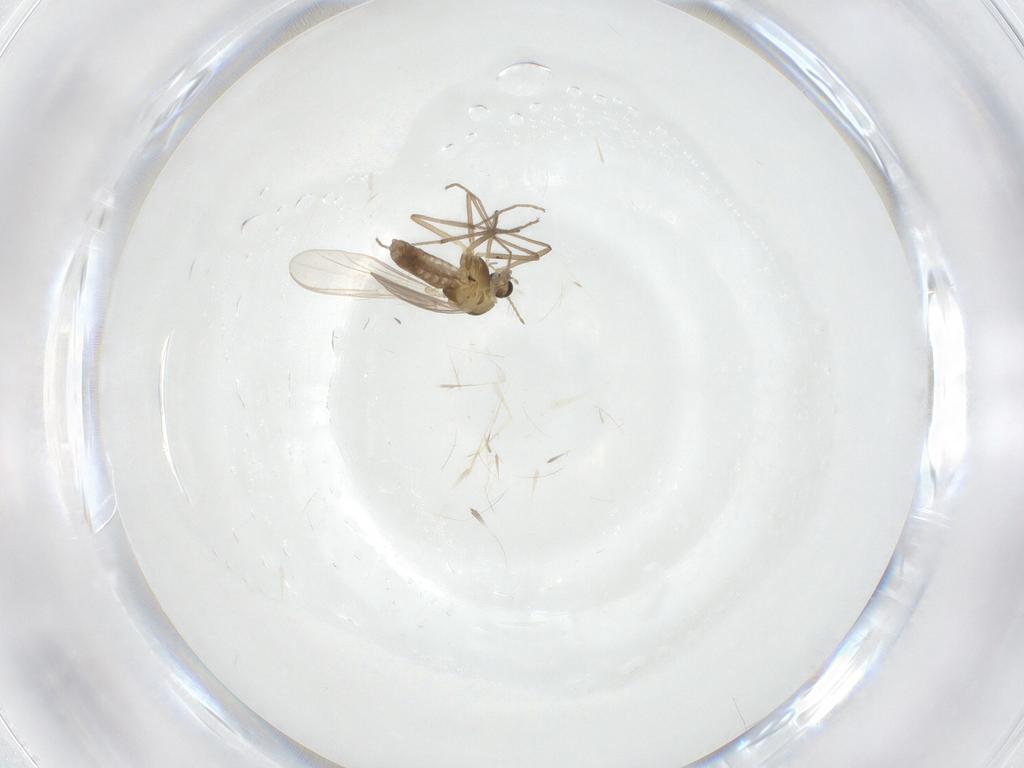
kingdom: Animalia
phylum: Arthropoda
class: Insecta
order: Diptera
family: Chironomidae
